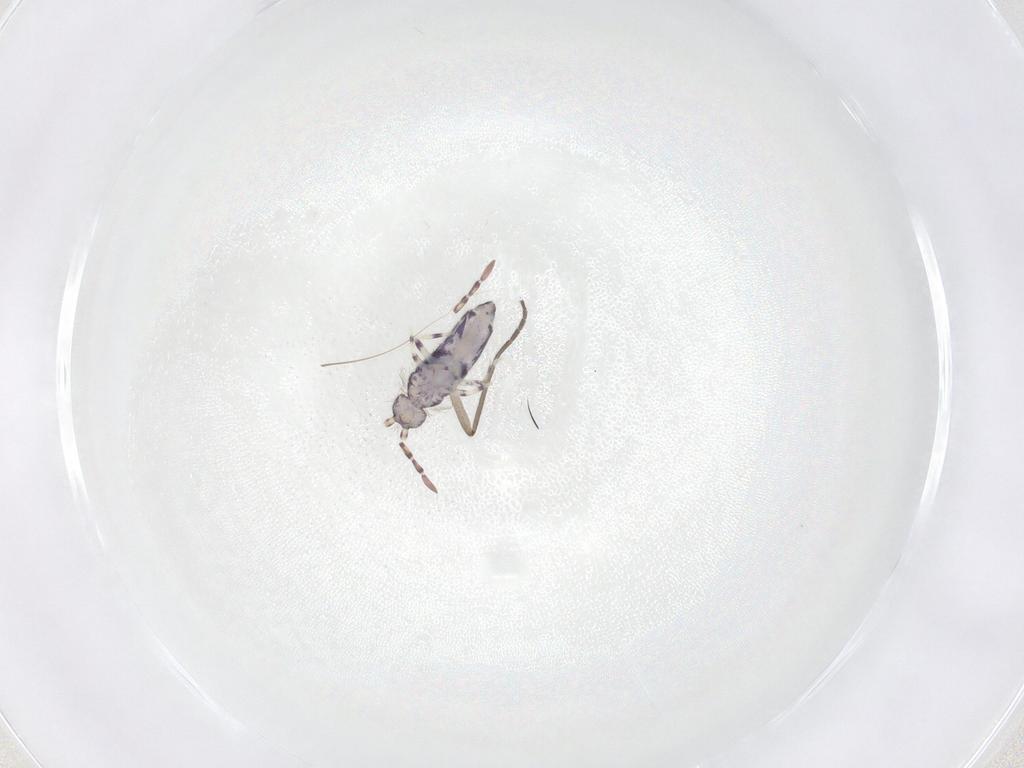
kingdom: Animalia
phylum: Arthropoda
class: Collembola
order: Entomobryomorpha
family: Entomobryidae
